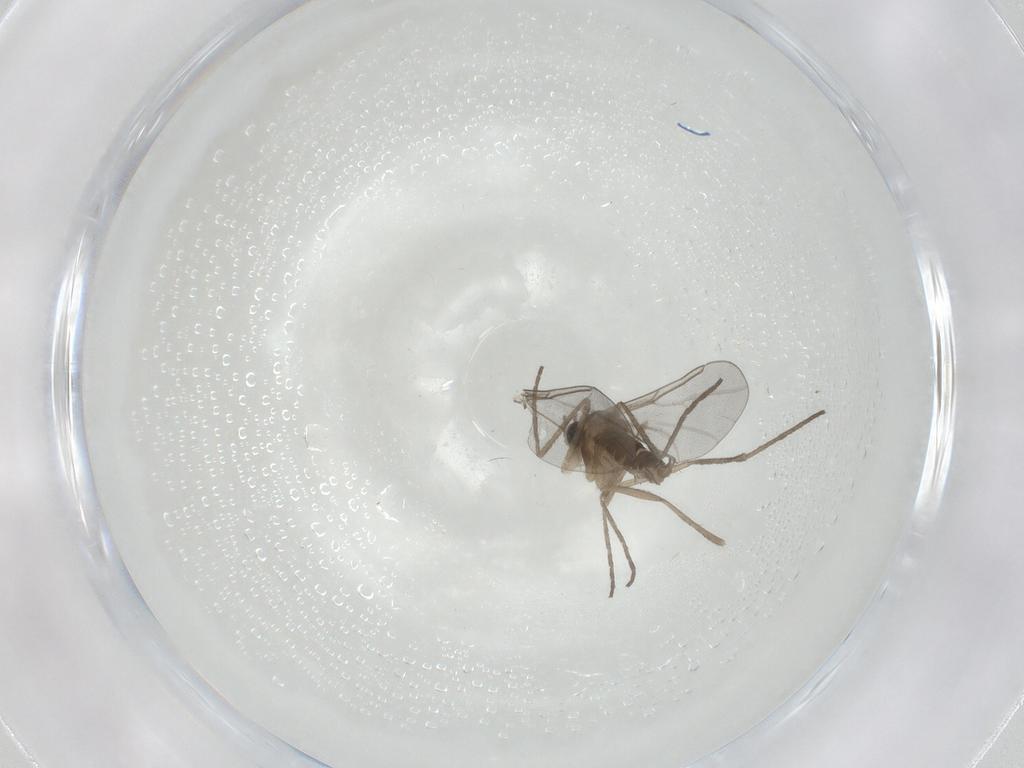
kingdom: Animalia
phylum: Arthropoda
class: Insecta
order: Diptera
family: Cecidomyiidae
